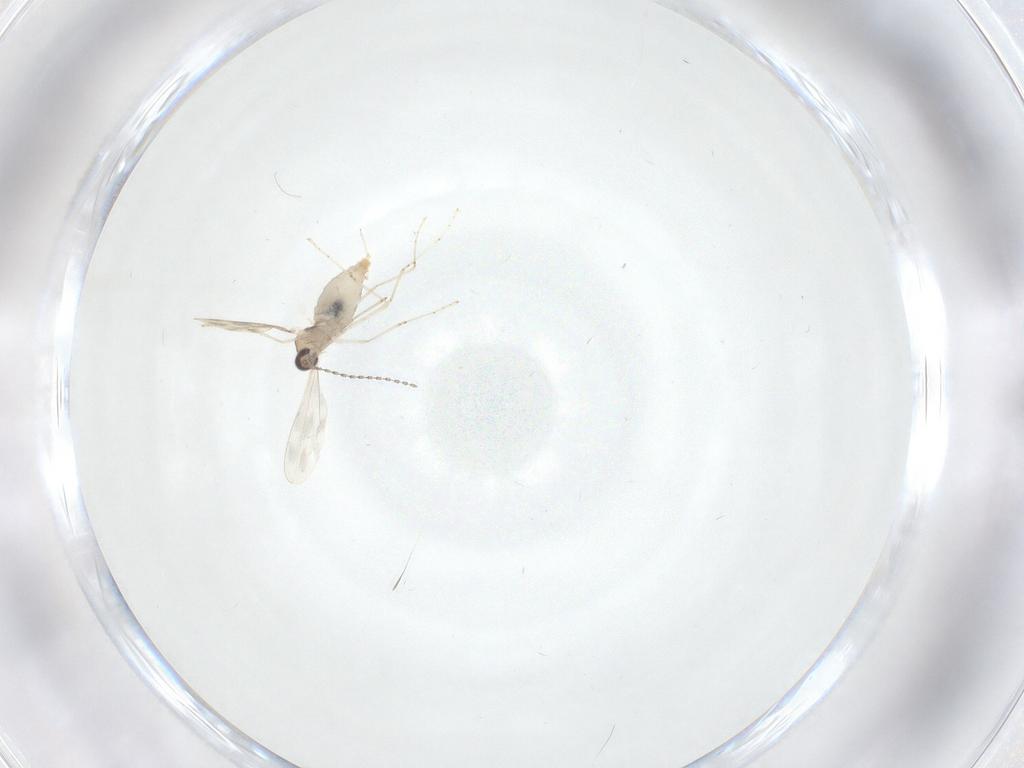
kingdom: Animalia
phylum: Arthropoda
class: Insecta
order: Diptera
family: Cecidomyiidae
